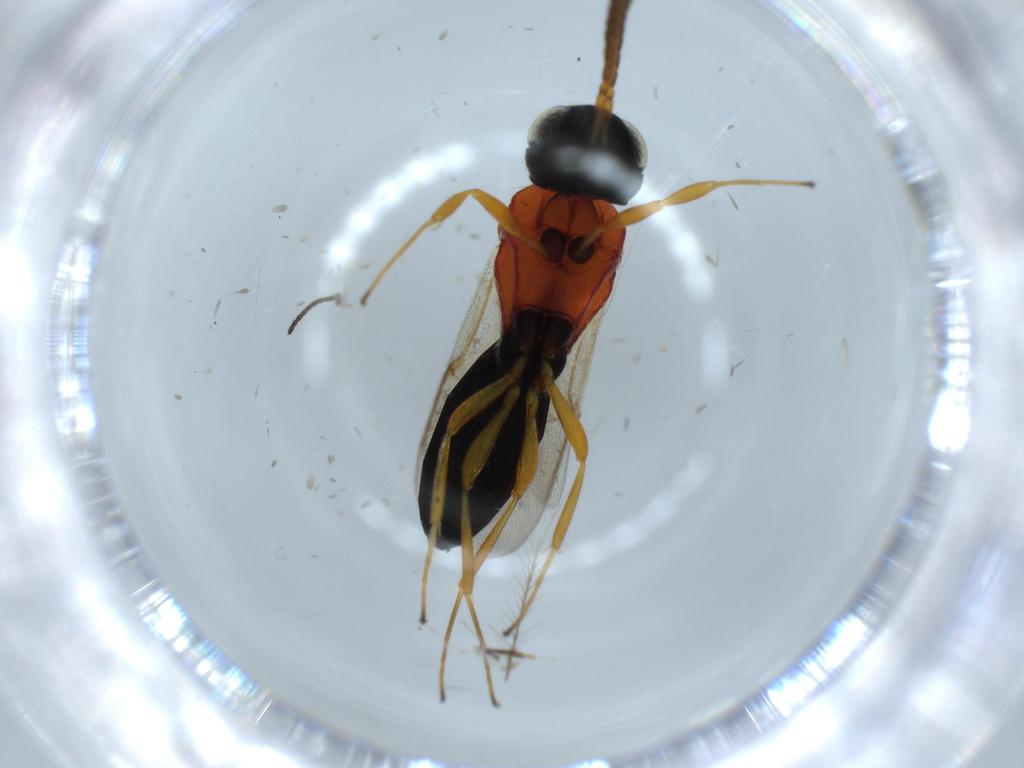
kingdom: Animalia
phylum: Arthropoda
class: Insecta
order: Hymenoptera
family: Scelionidae
